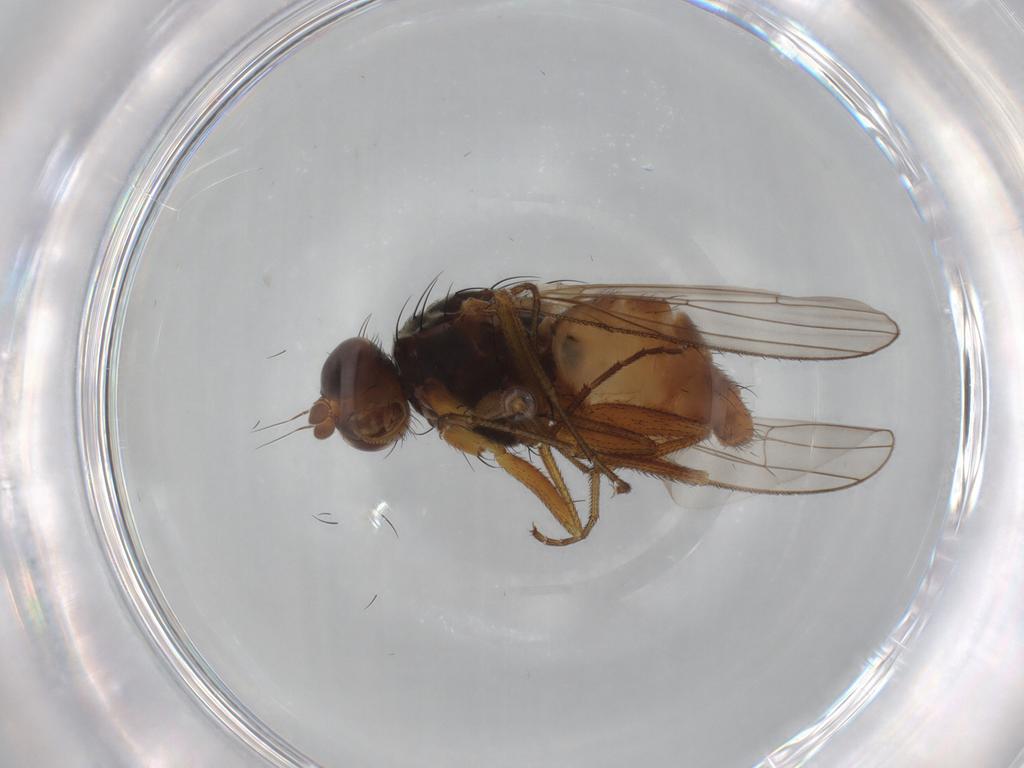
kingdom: Animalia
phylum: Arthropoda
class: Insecta
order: Diptera
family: Heleomyzidae
